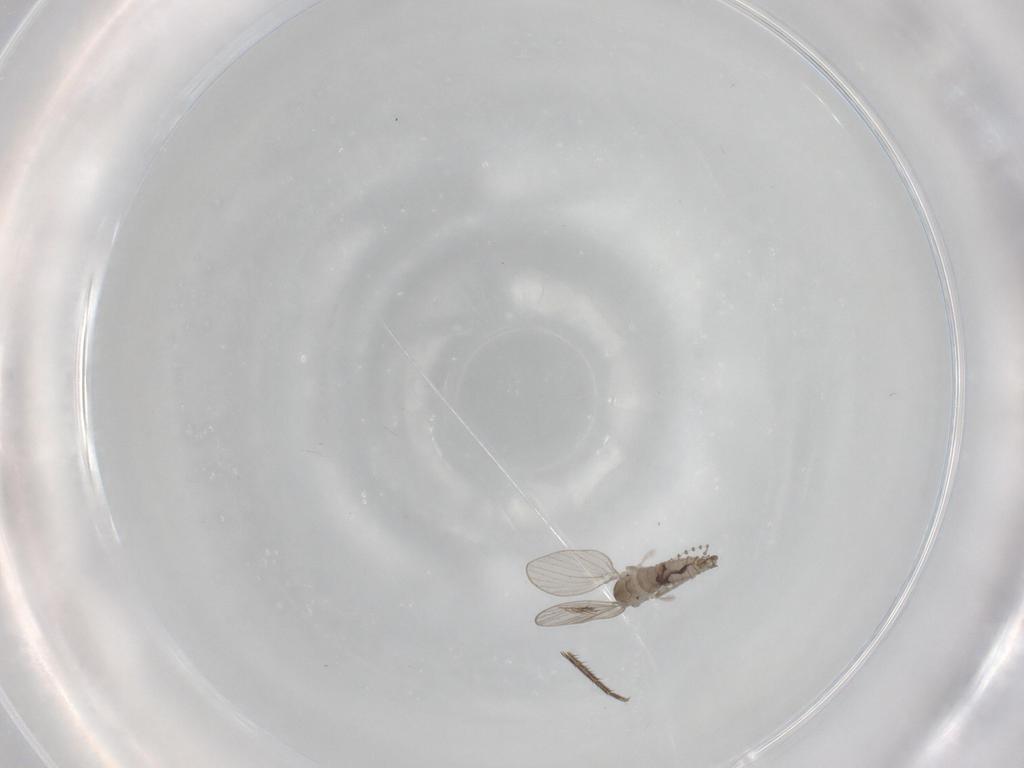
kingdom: Animalia
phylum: Arthropoda
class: Insecta
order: Diptera
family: Mycetophilidae
